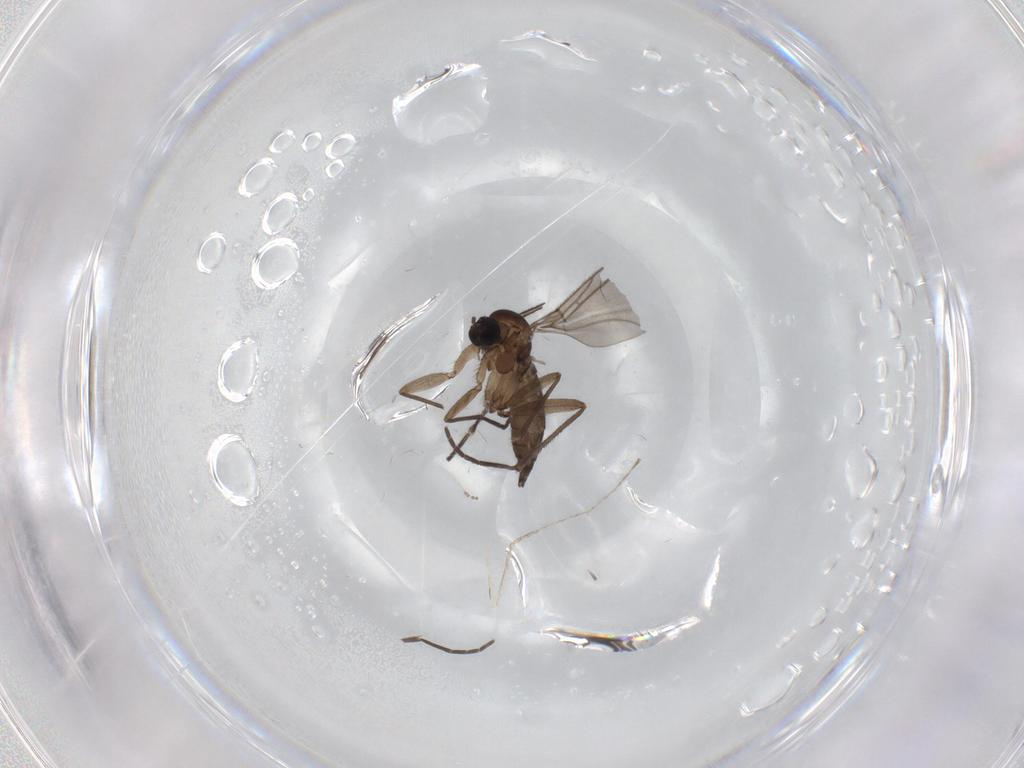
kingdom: Animalia
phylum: Arthropoda
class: Insecta
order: Diptera
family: Sciaridae
